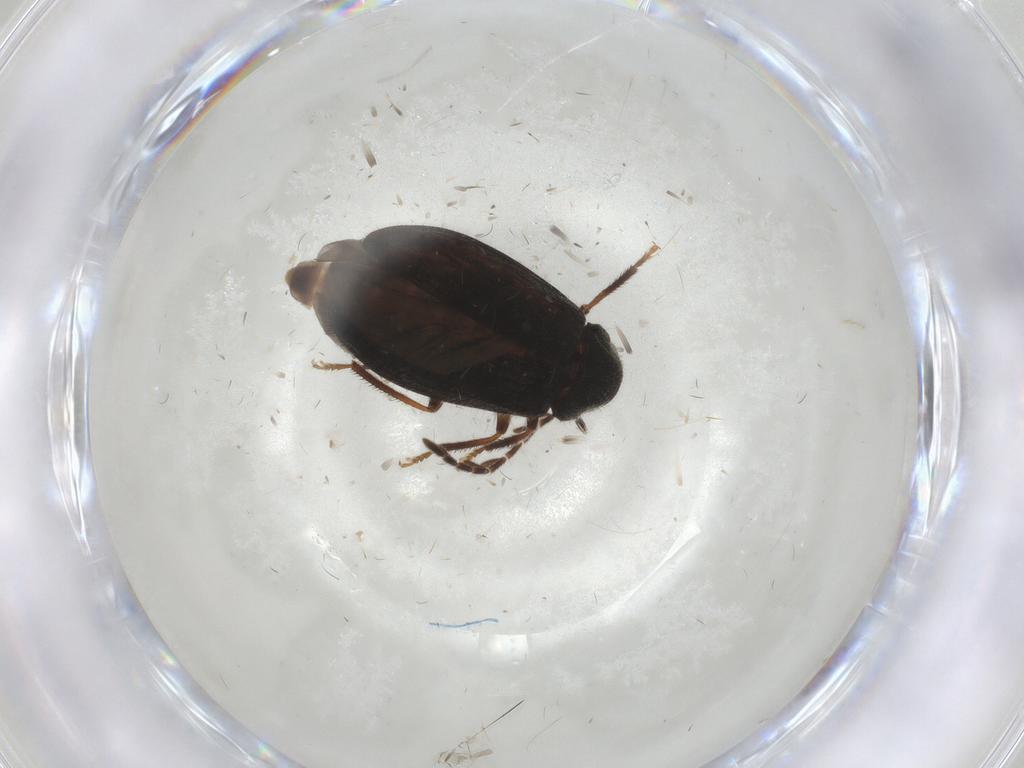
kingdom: Animalia
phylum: Arthropoda
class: Insecta
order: Coleoptera
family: Ptilodactylidae
